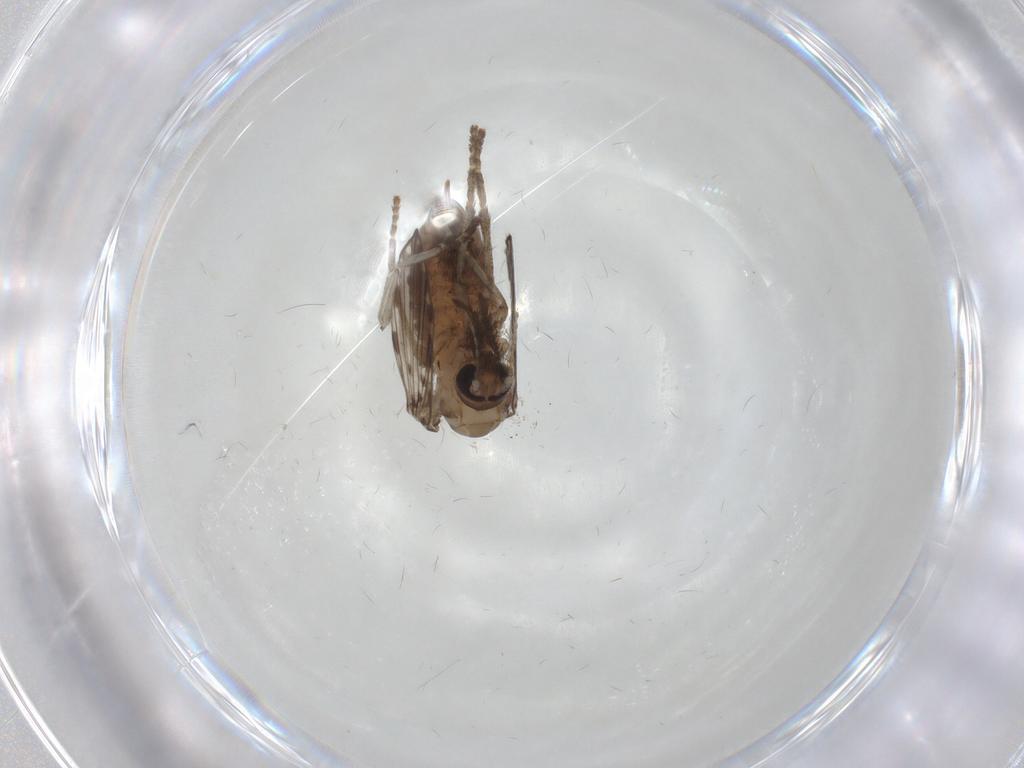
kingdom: Animalia
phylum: Arthropoda
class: Insecta
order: Diptera
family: Psychodidae
